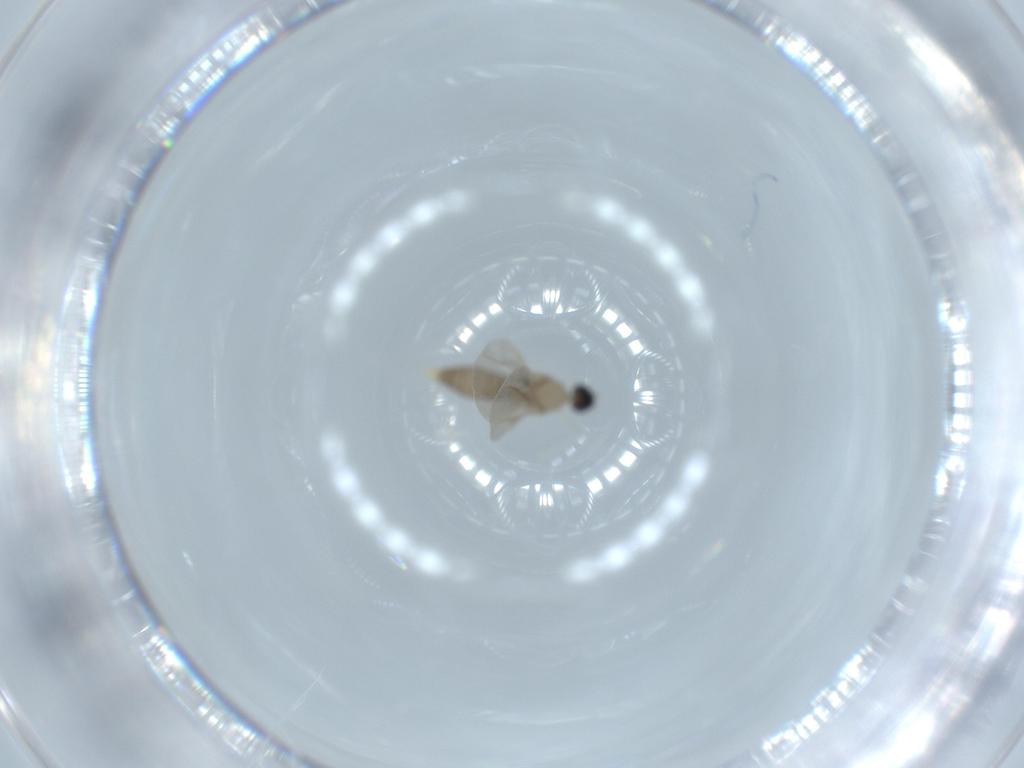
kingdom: Animalia
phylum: Arthropoda
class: Insecta
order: Diptera
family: Cecidomyiidae
